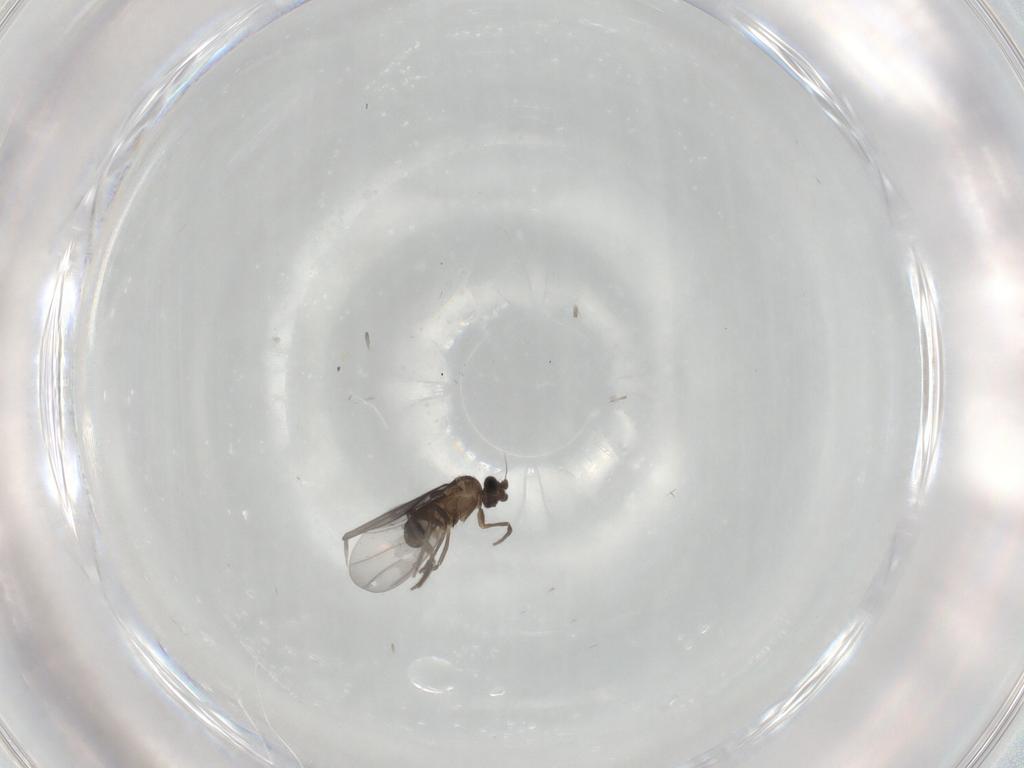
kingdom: Animalia
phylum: Arthropoda
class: Insecta
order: Diptera
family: Phoridae
